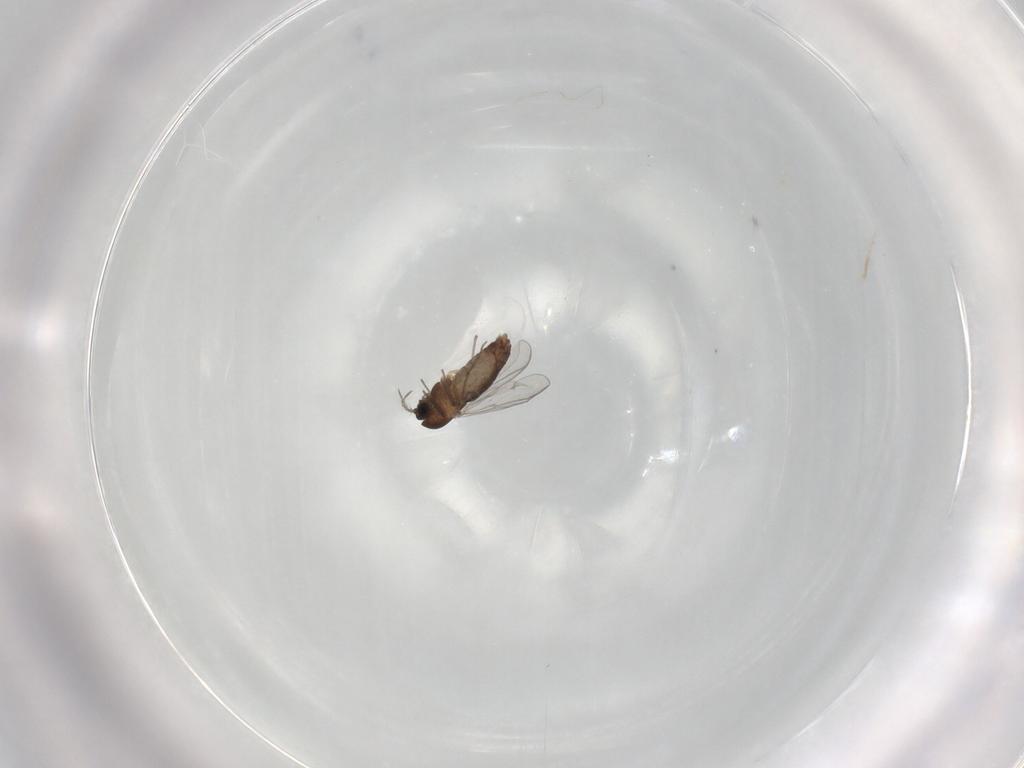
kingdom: Animalia
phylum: Arthropoda
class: Insecta
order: Diptera
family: Chironomidae
